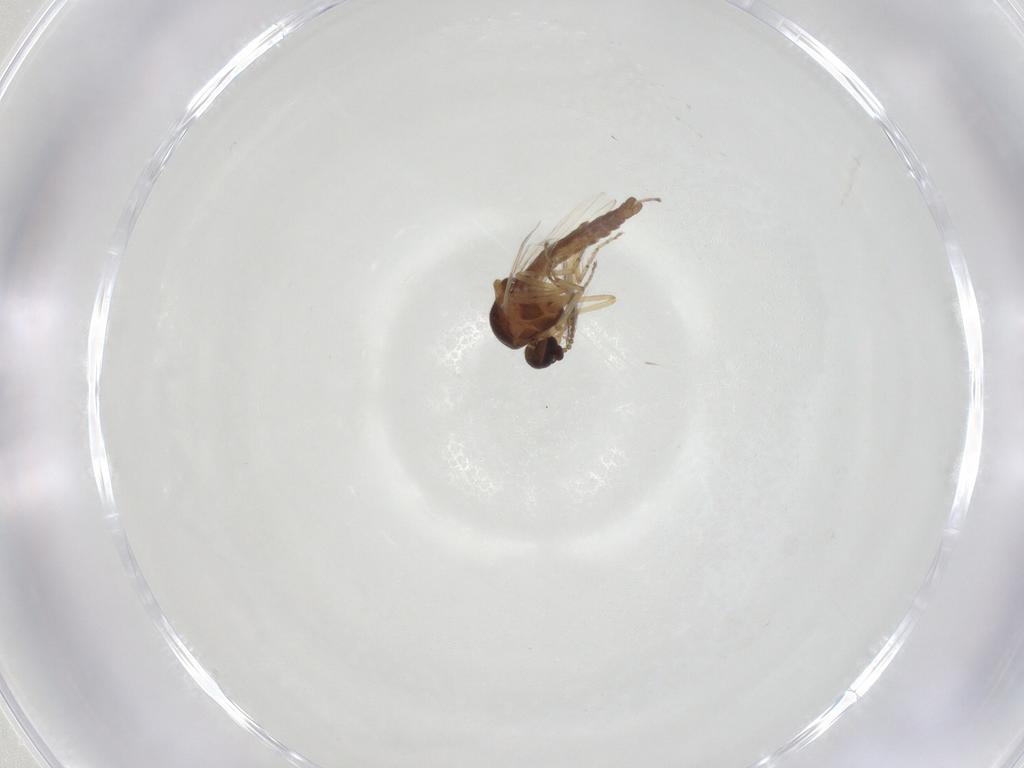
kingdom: Animalia
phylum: Arthropoda
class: Insecta
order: Diptera
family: Ceratopogonidae
